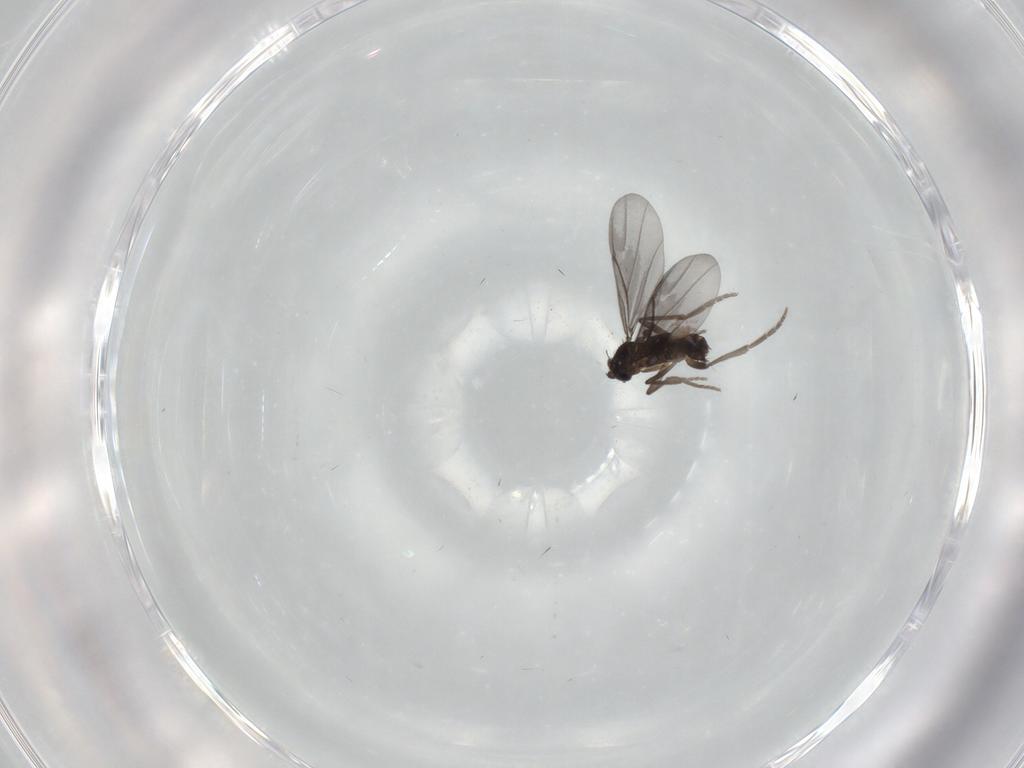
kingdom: Animalia
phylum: Arthropoda
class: Insecta
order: Diptera
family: Phoridae
